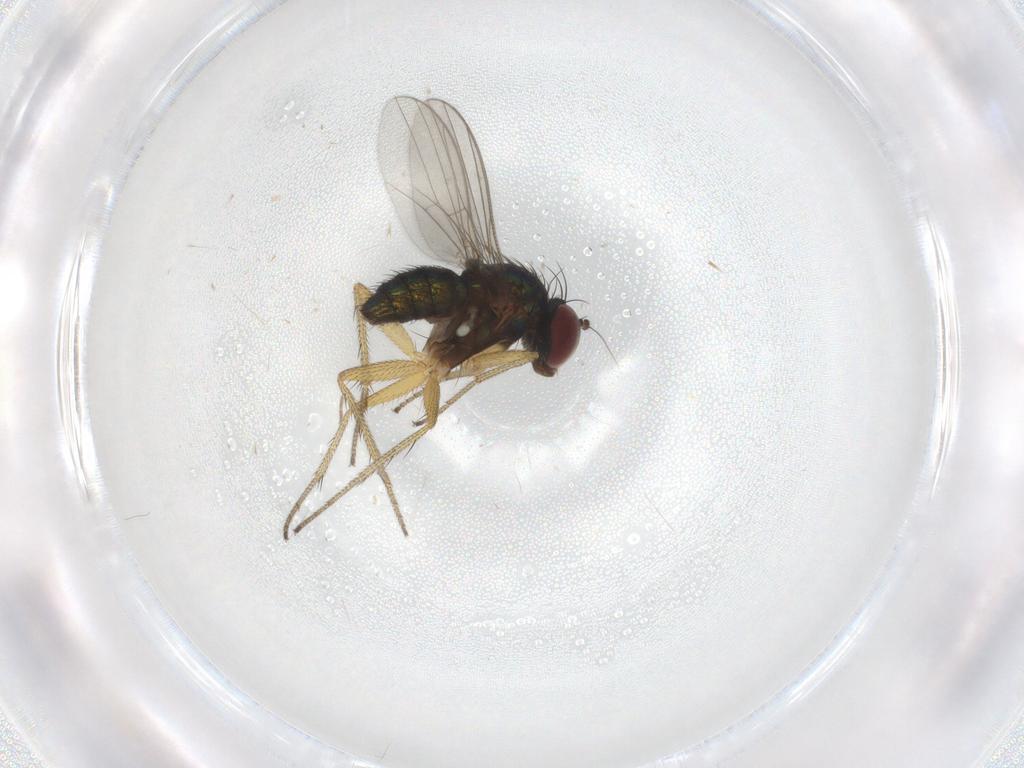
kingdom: Animalia
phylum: Arthropoda
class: Insecta
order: Diptera
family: Dolichopodidae
